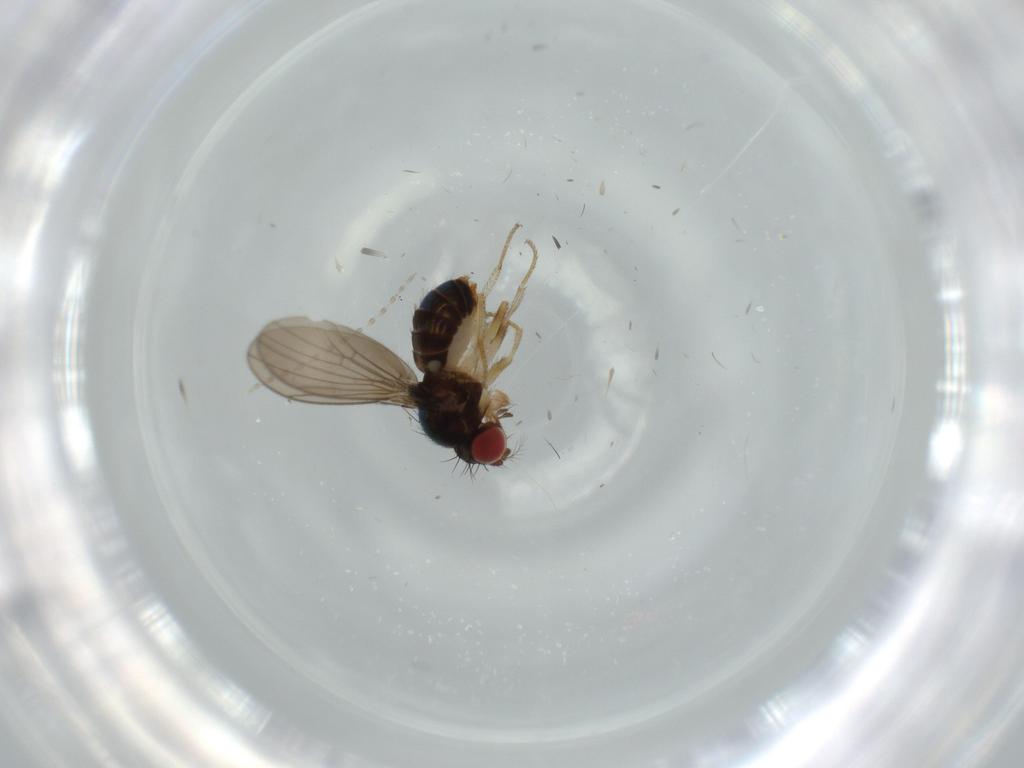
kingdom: Animalia
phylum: Arthropoda
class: Insecta
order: Diptera
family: Drosophilidae
